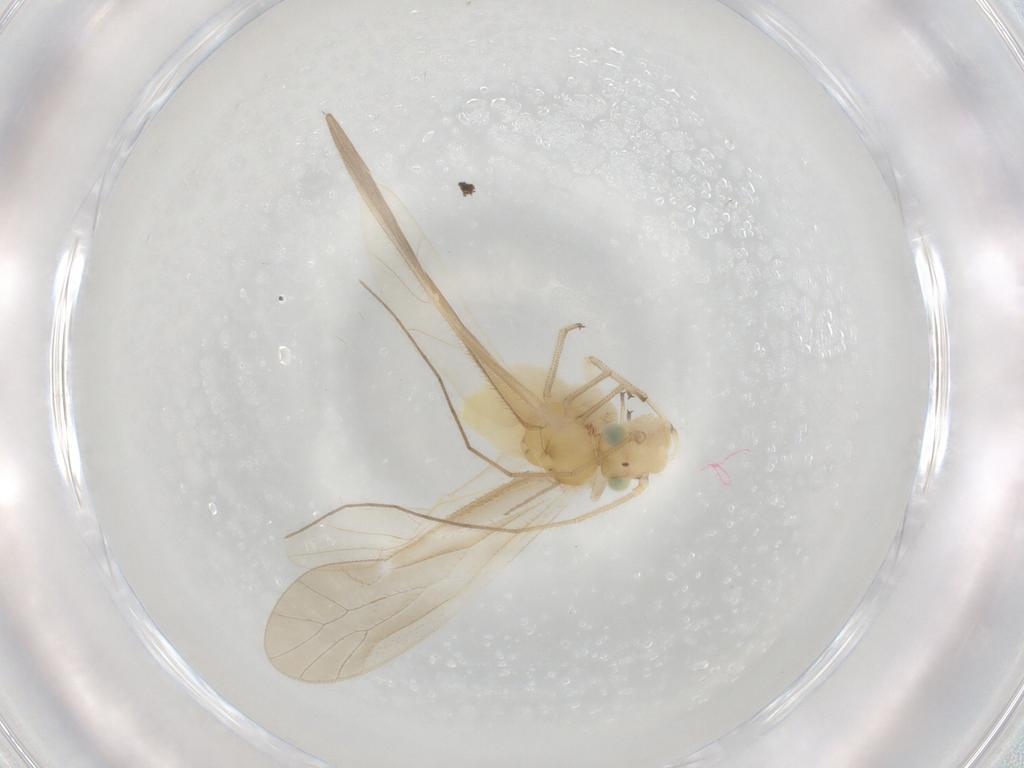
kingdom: Animalia
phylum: Arthropoda
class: Insecta
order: Psocodea
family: Caeciliusidae
